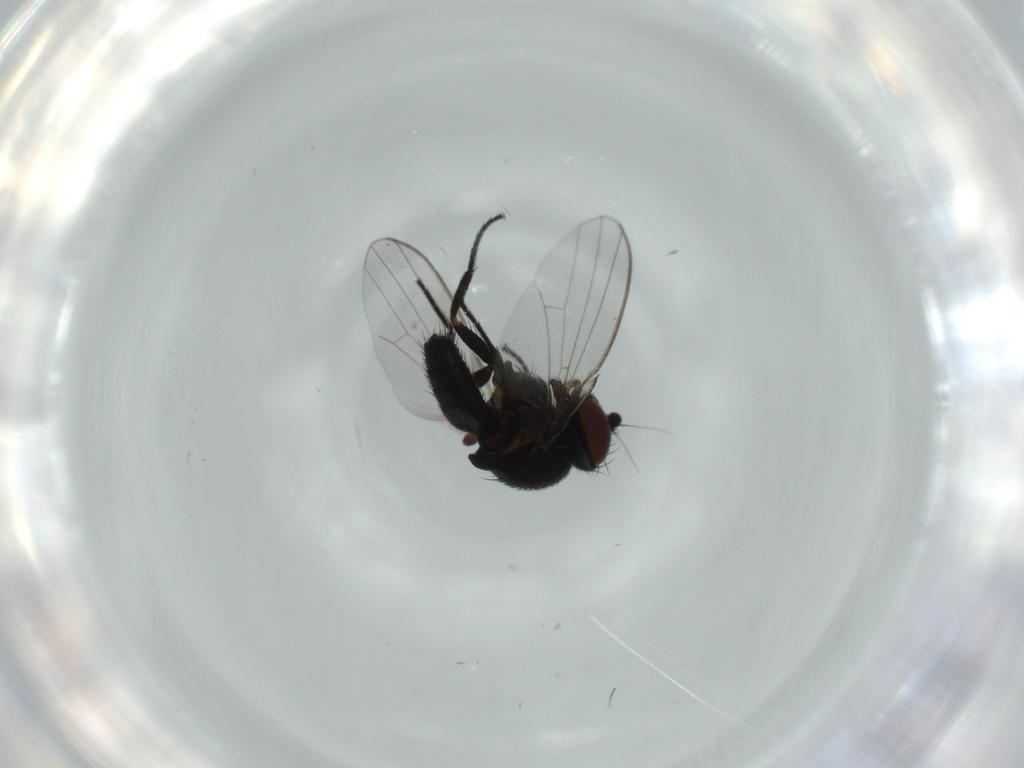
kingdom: Animalia
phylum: Arthropoda
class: Insecta
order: Diptera
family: Milichiidae
